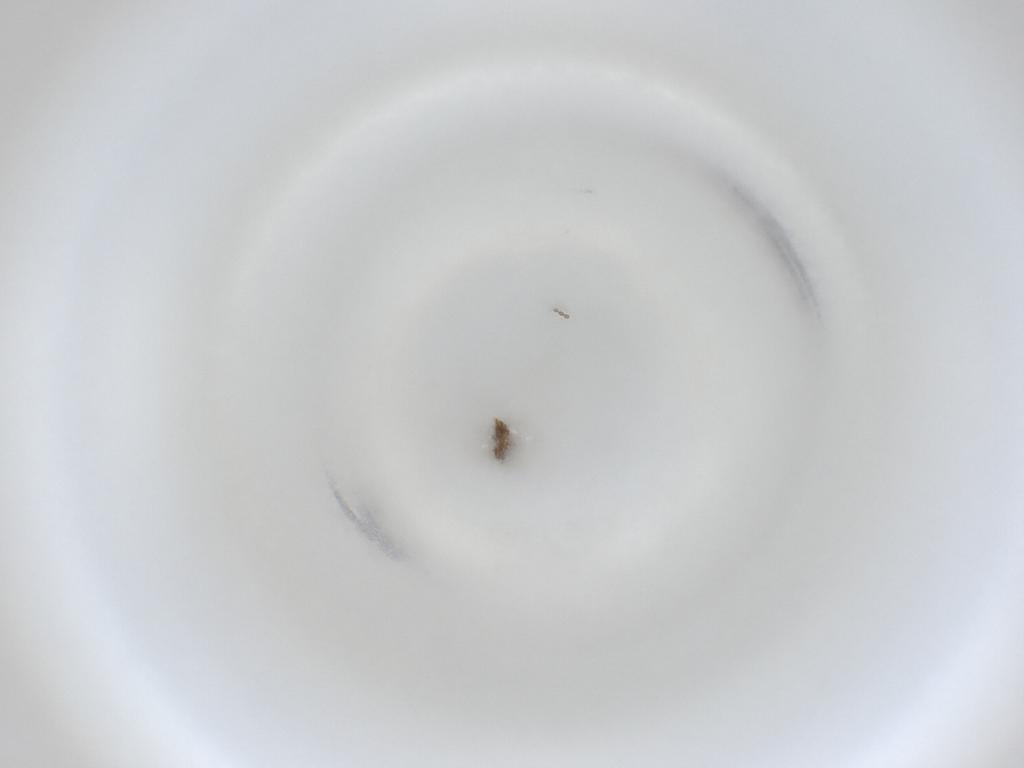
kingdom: Animalia
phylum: Arthropoda
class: Insecta
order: Diptera
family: Cecidomyiidae
